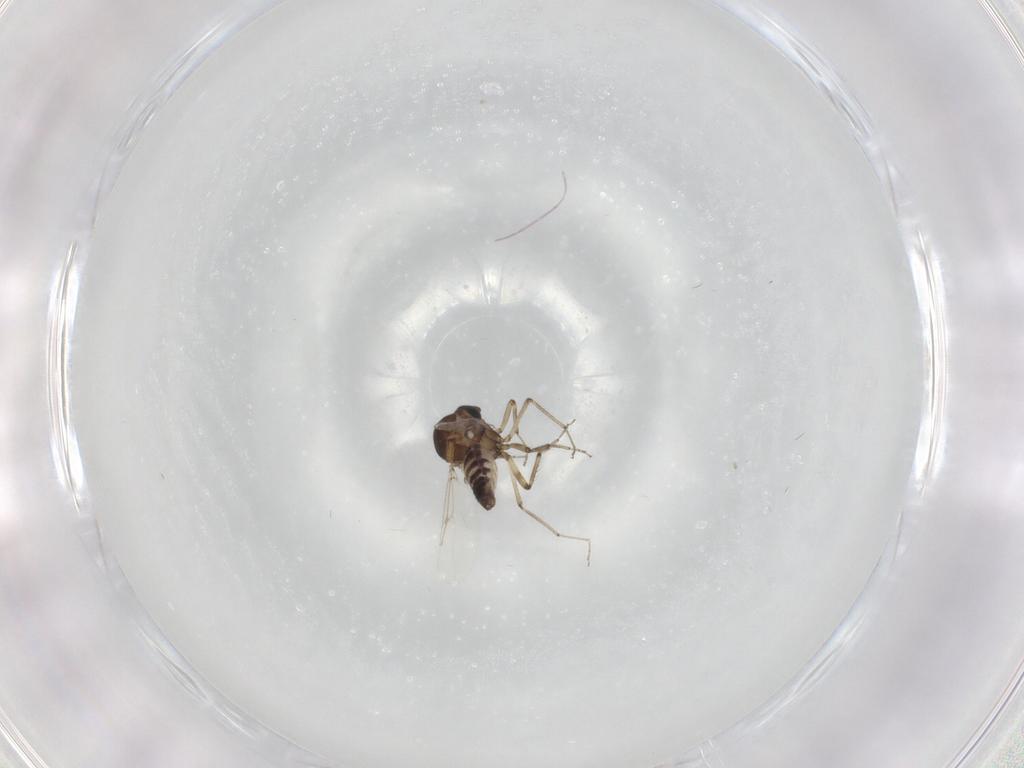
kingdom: Animalia
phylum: Arthropoda
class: Insecta
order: Diptera
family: Ceratopogonidae
